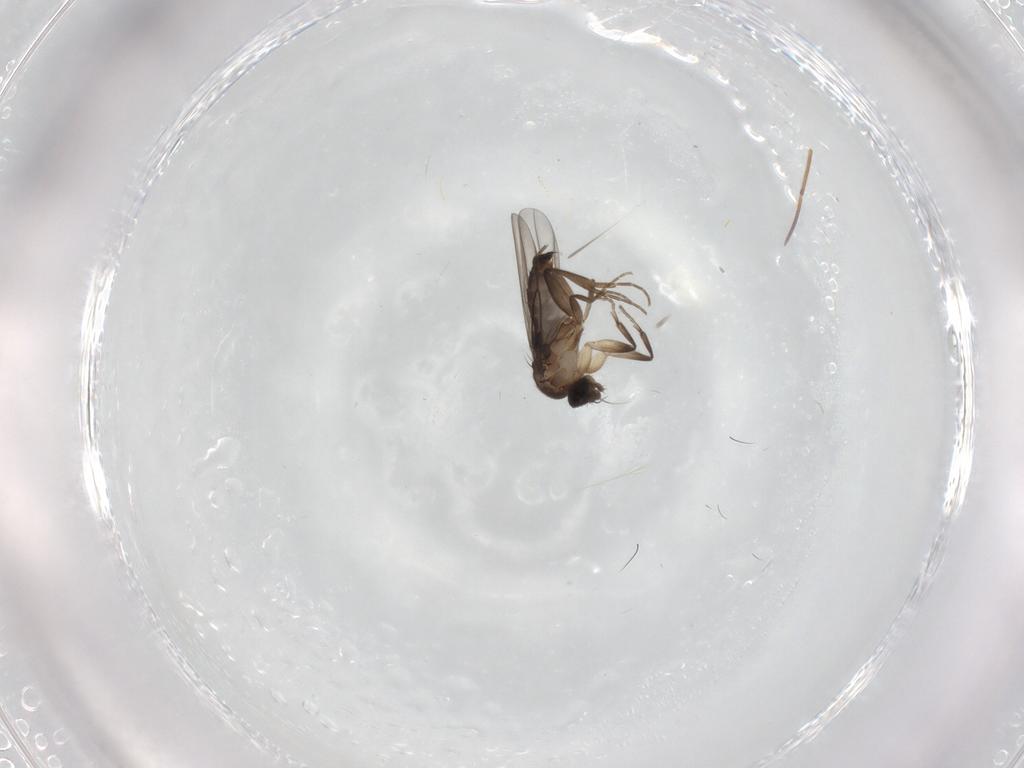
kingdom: Animalia
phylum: Arthropoda
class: Insecta
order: Diptera
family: Phoridae
